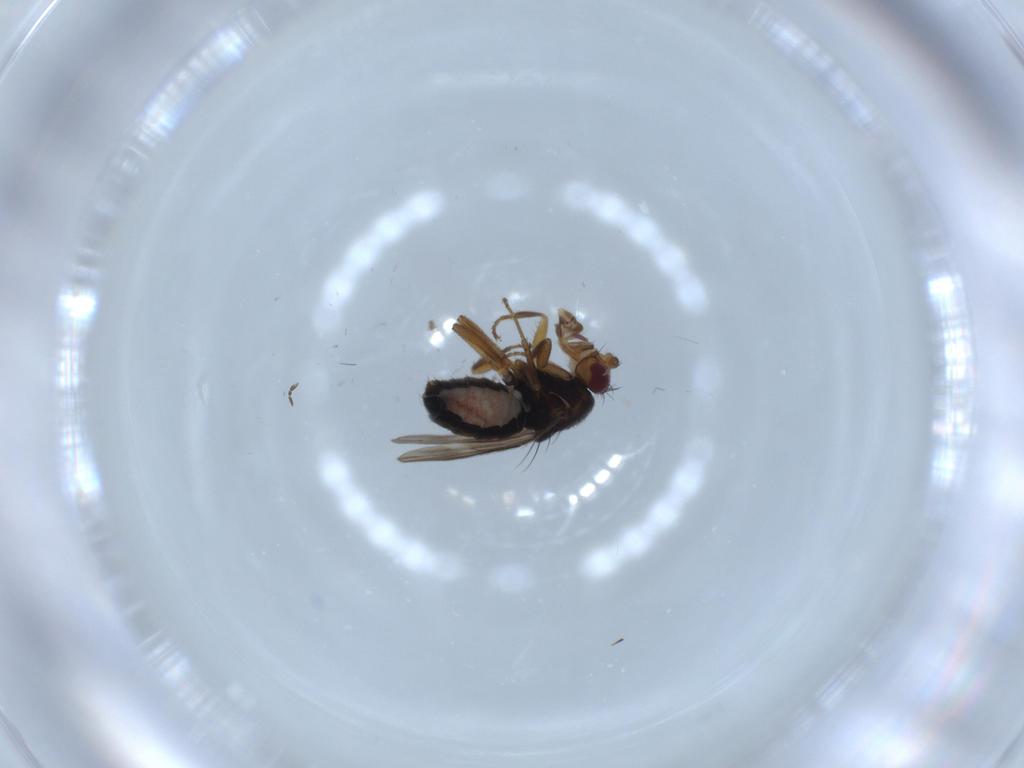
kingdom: Animalia
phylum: Arthropoda
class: Insecta
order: Diptera
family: Sphaeroceridae
